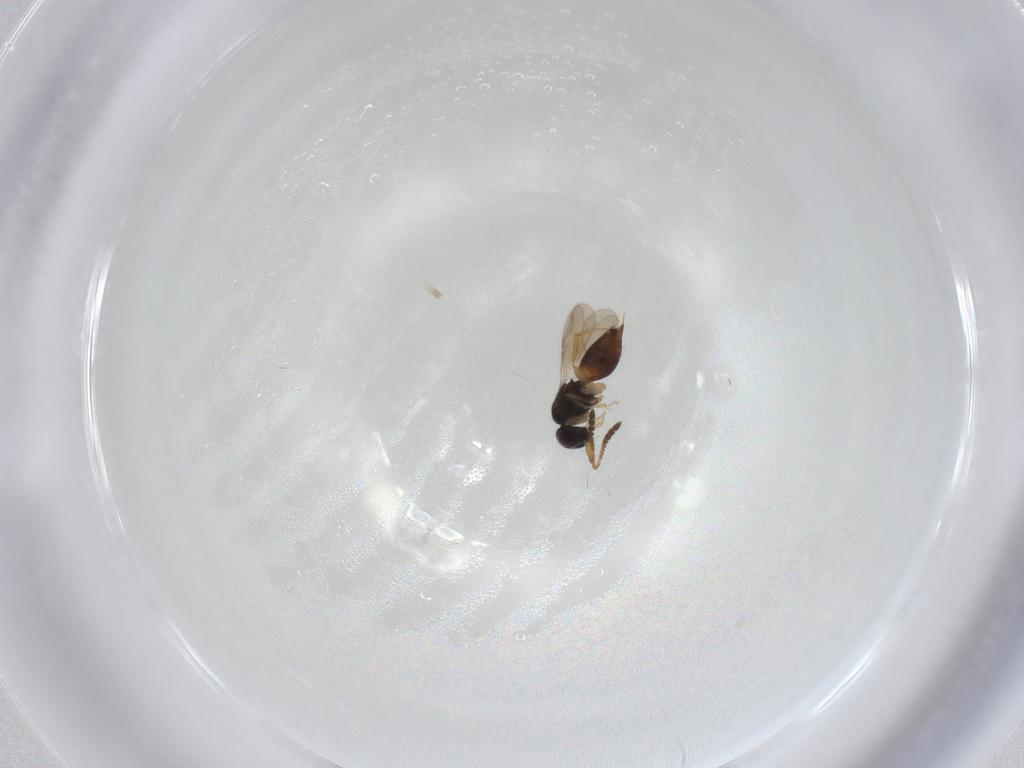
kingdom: Animalia
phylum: Arthropoda
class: Insecta
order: Hymenoptera
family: Ceraphronidae
